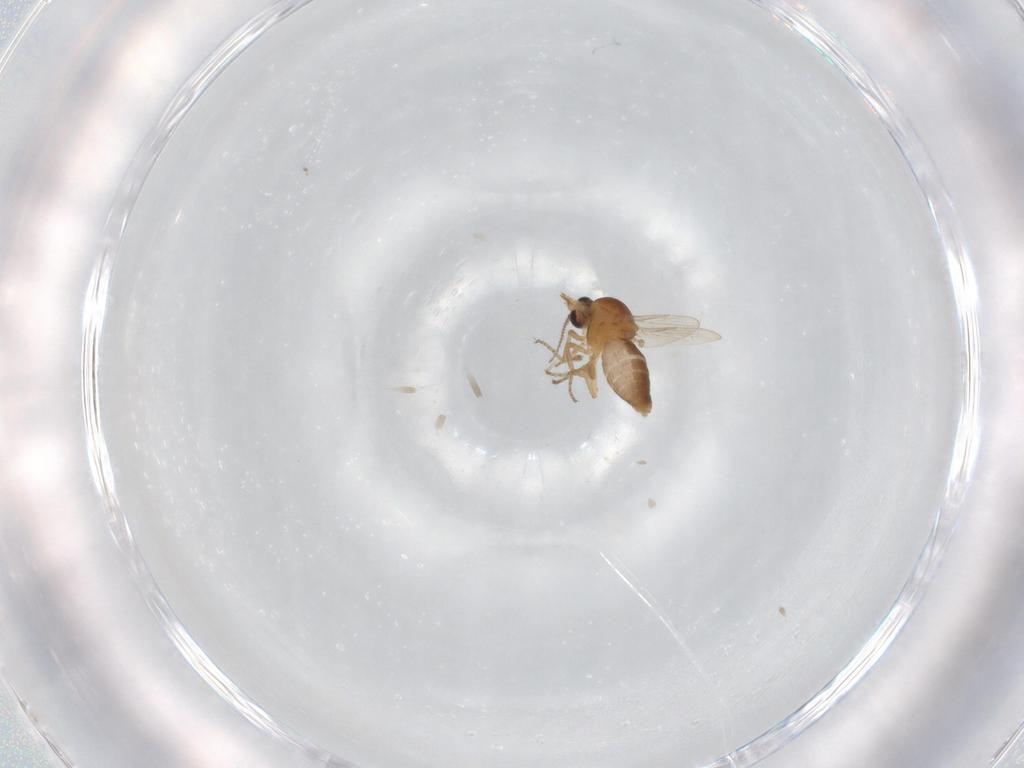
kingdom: Animalia
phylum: Arthropoda
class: Insecta
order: Diptera
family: Ceratopogonidae
